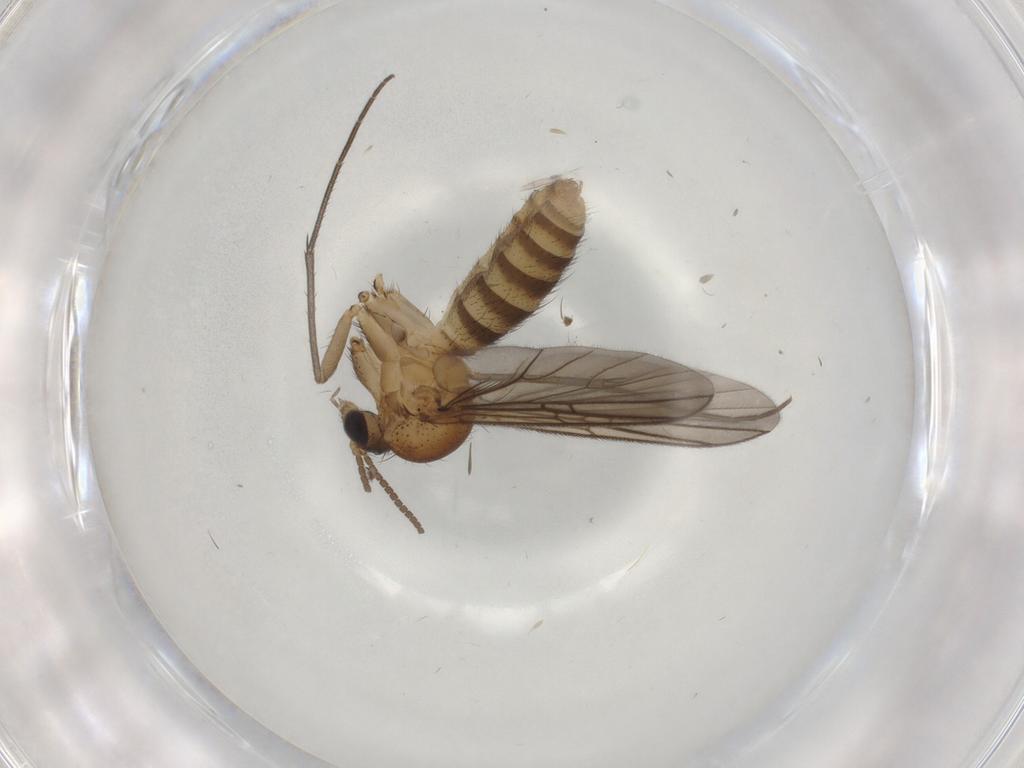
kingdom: Animalia
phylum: Arthropoda
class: Insecta
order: Diptera
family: Mycetophilidae
